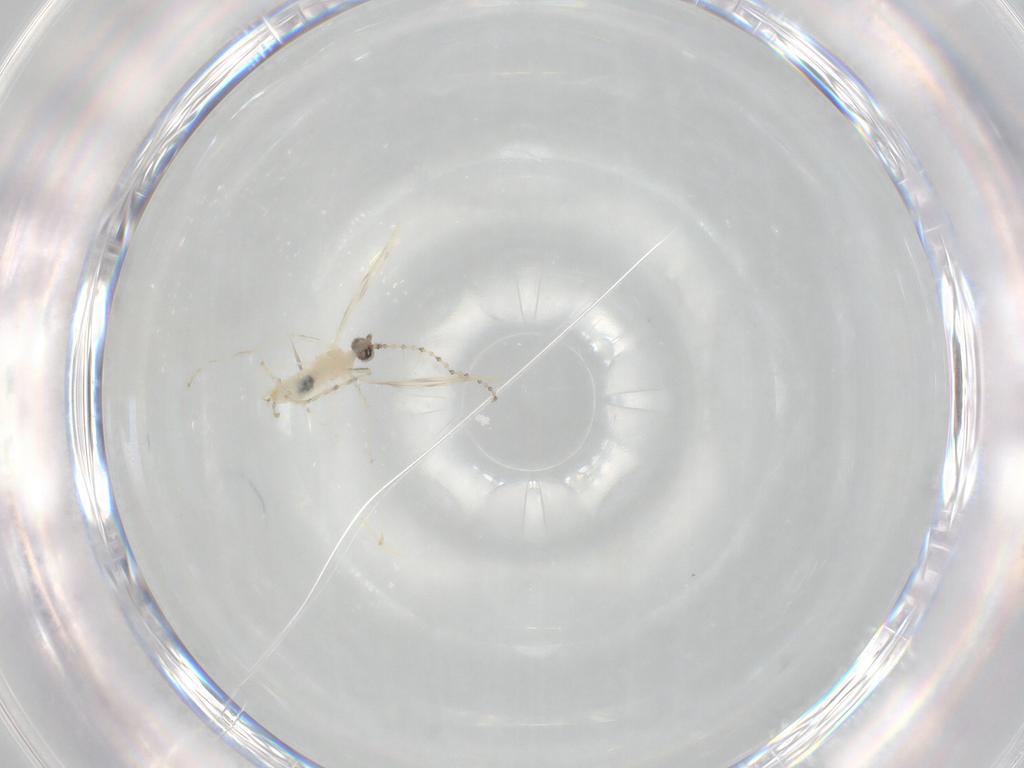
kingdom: Animalia
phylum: Arthropoda
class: Insecta
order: Diptera
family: Cecidomyiidae
